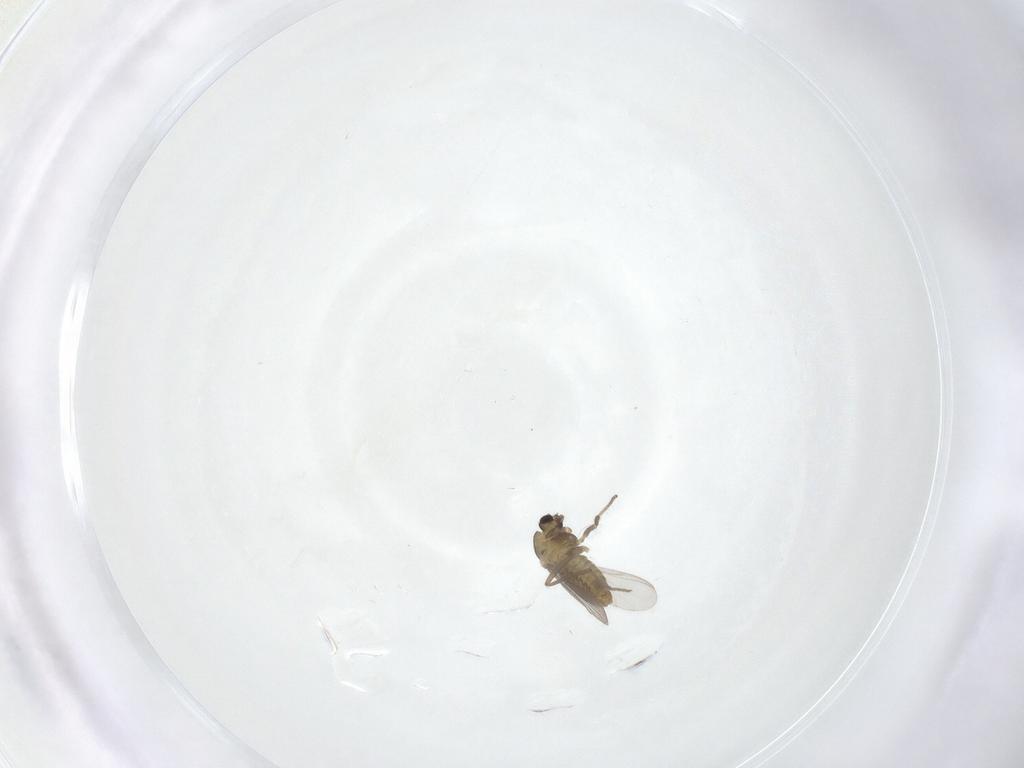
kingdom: Animalia
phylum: Arthropoda
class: Insecta
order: Diptera
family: Chironomidae
